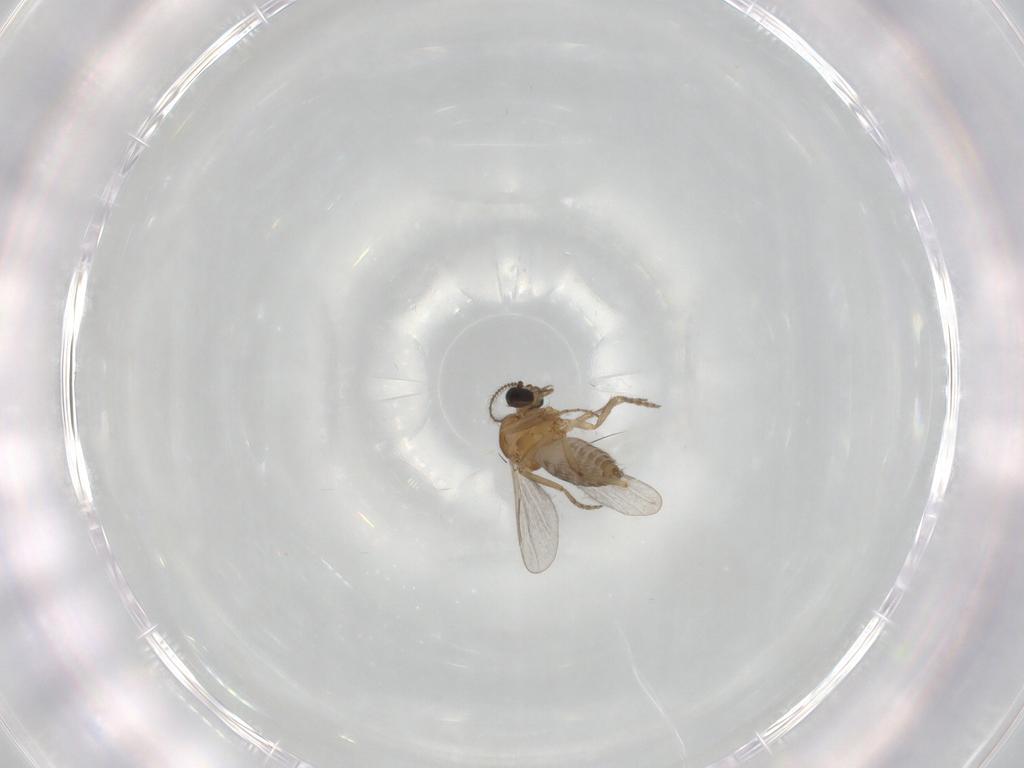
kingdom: Animalia
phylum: Arthropoda
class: Insecta
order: Diptera
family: Ceratopogonidae
